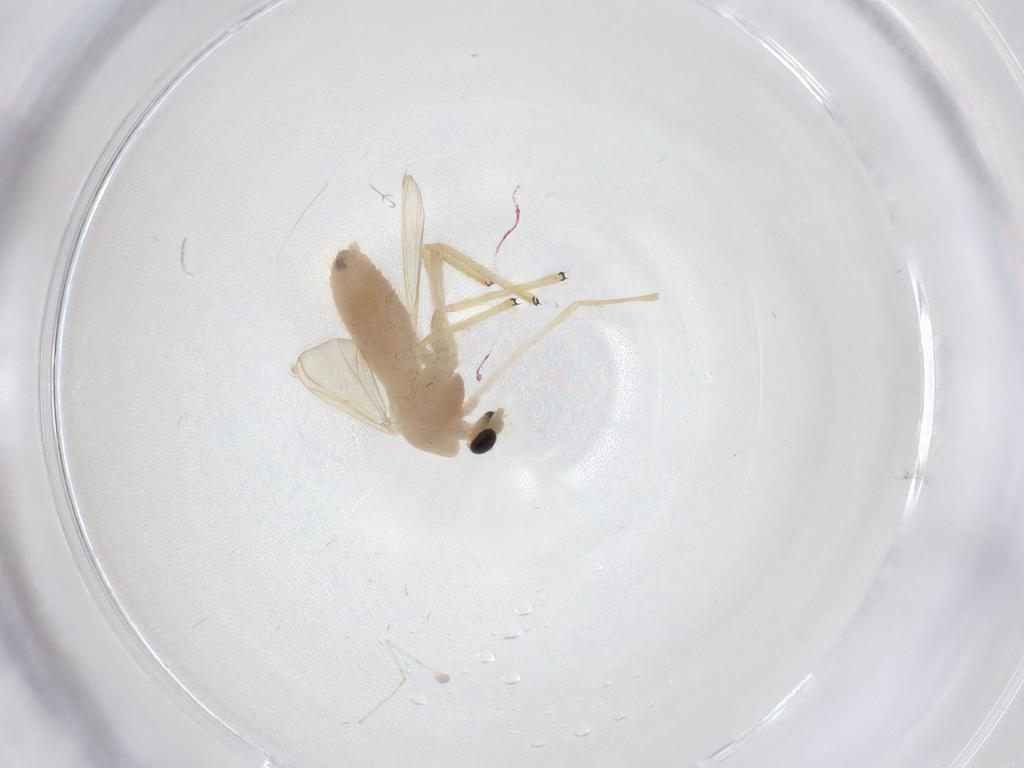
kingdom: Animalia
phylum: Arthropoda
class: Insecta
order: Diptera
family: Chironomidae
